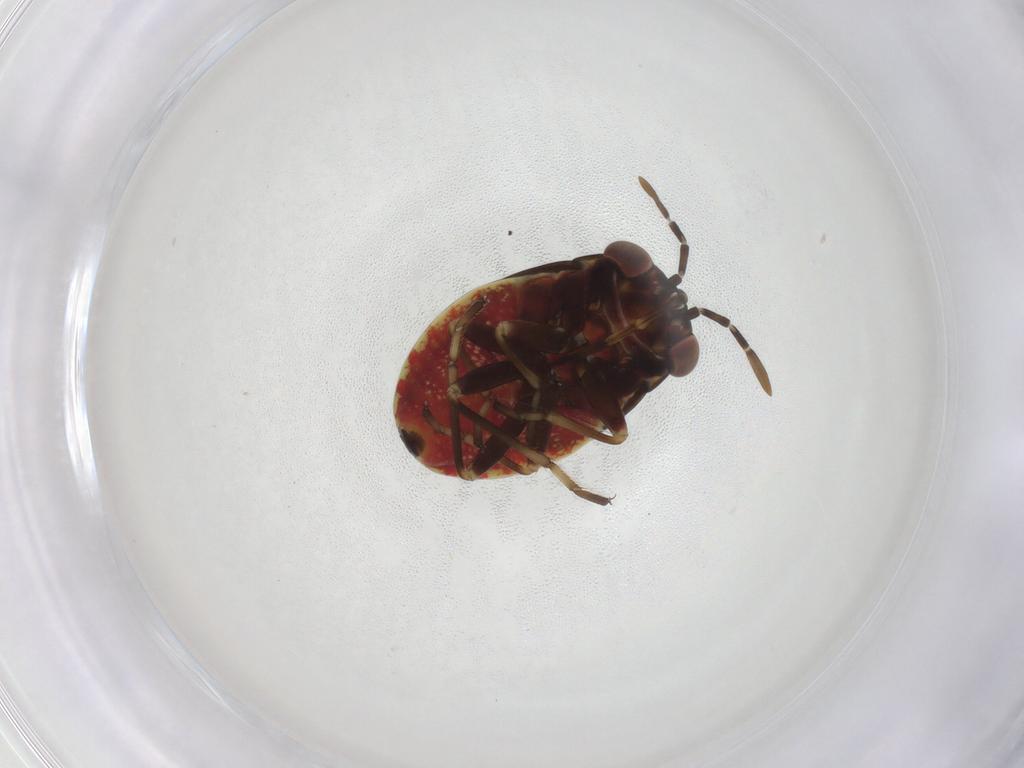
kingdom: Animalia
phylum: Arthropoda
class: Insecta
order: Hemiptera
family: Geocoridae
